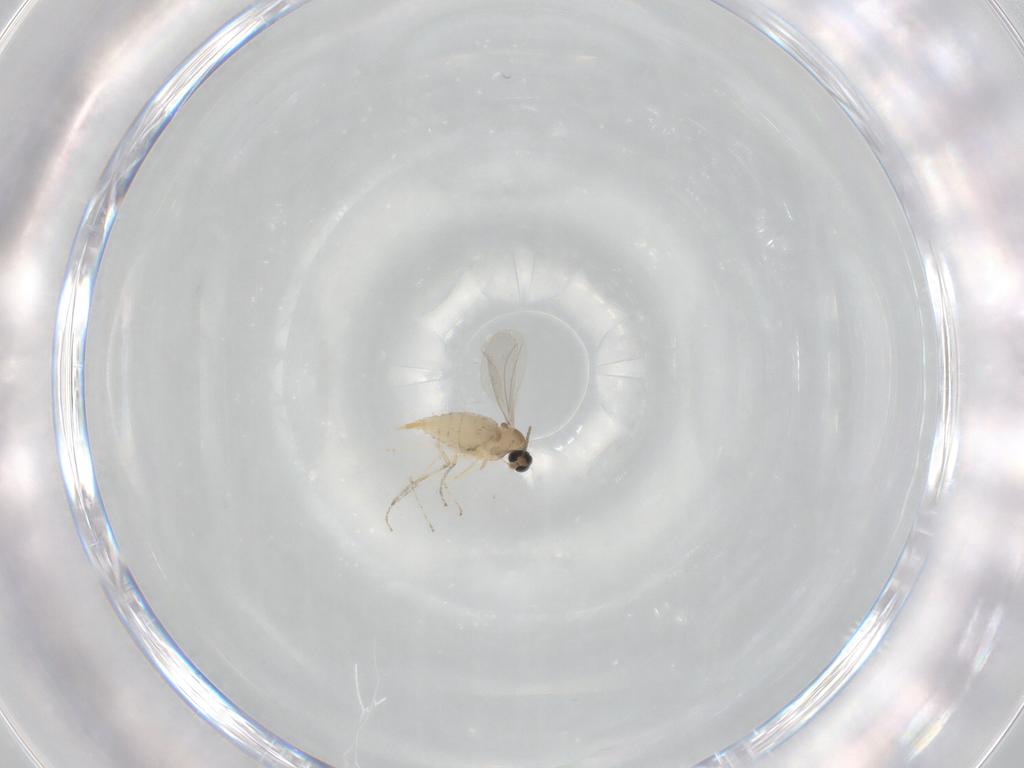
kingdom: Animalia
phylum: Arthropoda
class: Insecta
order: Diptera
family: Cecidomyiidae
